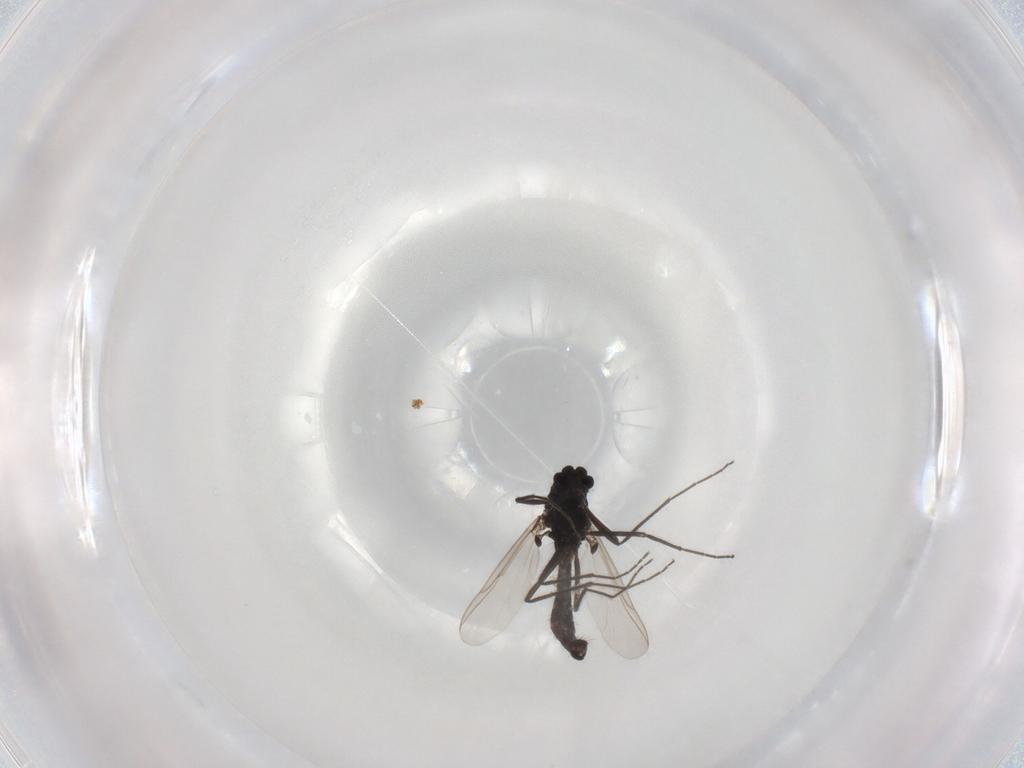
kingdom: Animalia
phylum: Arthropoda
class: Insecta
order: Diptera
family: Chironomidae
